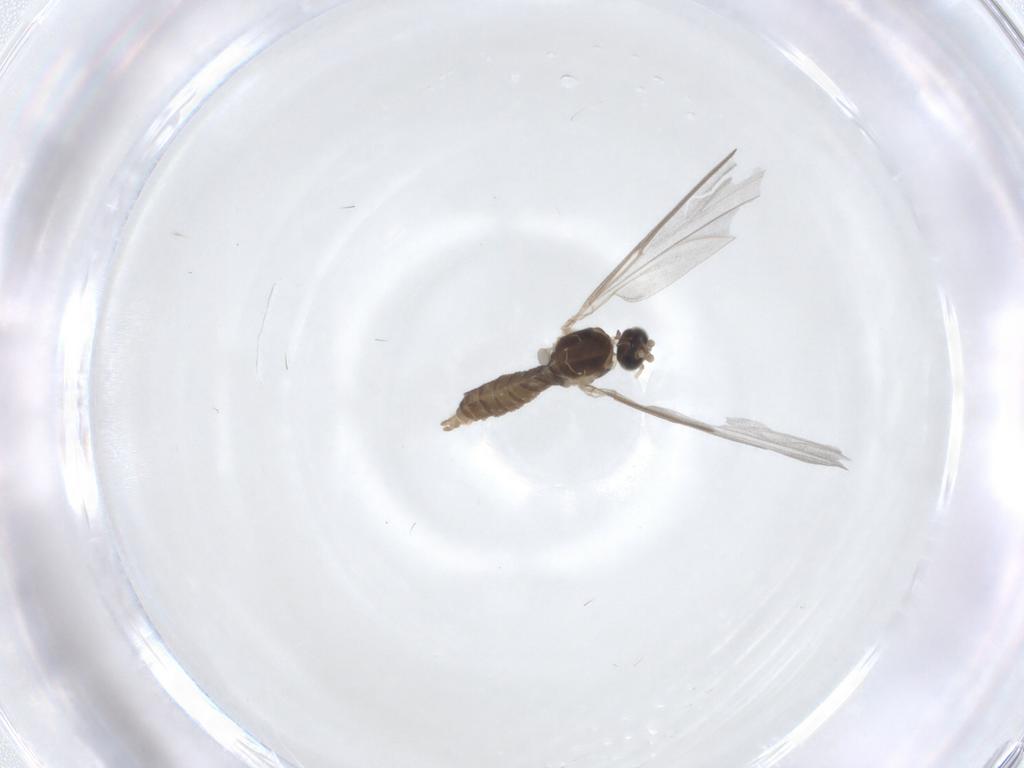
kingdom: Animalia
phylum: Arthropoda
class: Insecta
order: Diptera
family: Cecidomyiidae
